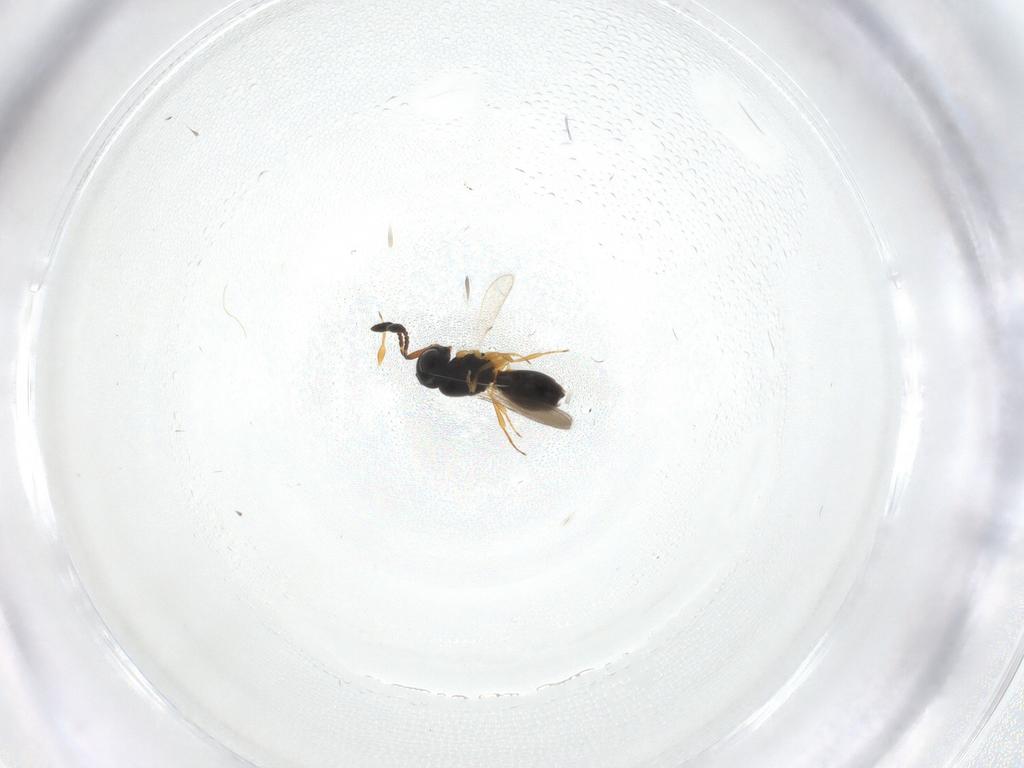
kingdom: Animalia
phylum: Arthropoda
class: Insecta
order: Hymenoptera
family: Scelionidae
